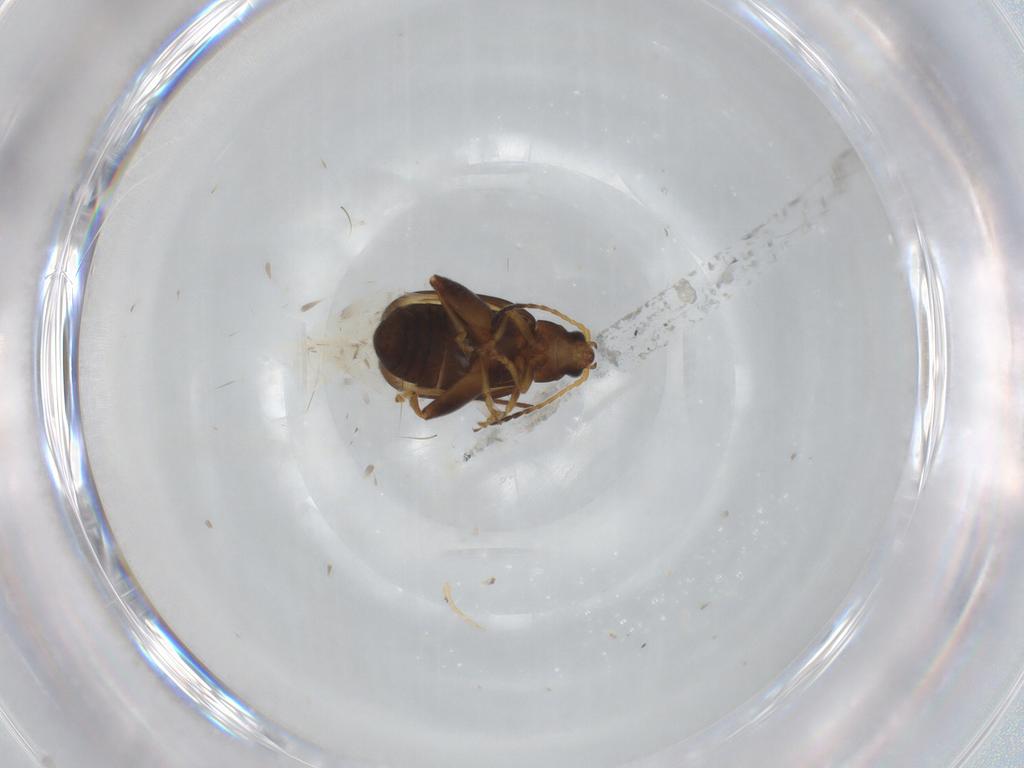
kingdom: Animalia
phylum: Arthropoda
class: Insecta
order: Coleoptera
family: Chrysomelidae
